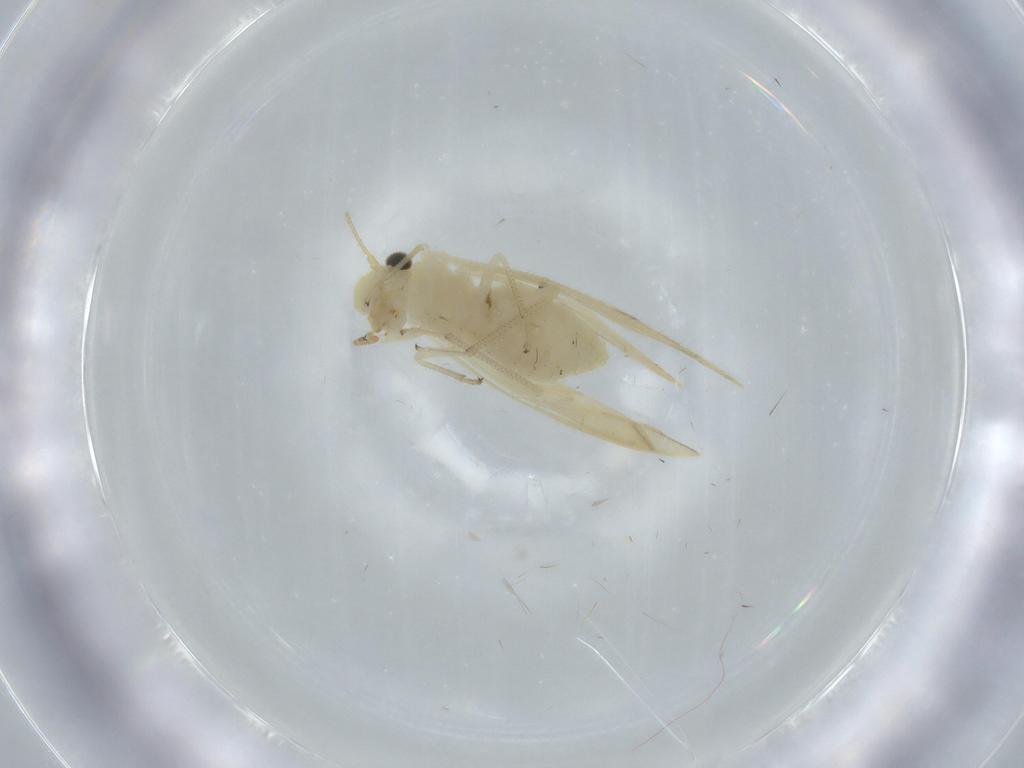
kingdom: Animalia
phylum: Arthropoda
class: Insecta
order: Psocodea
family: Caeciliusidae
